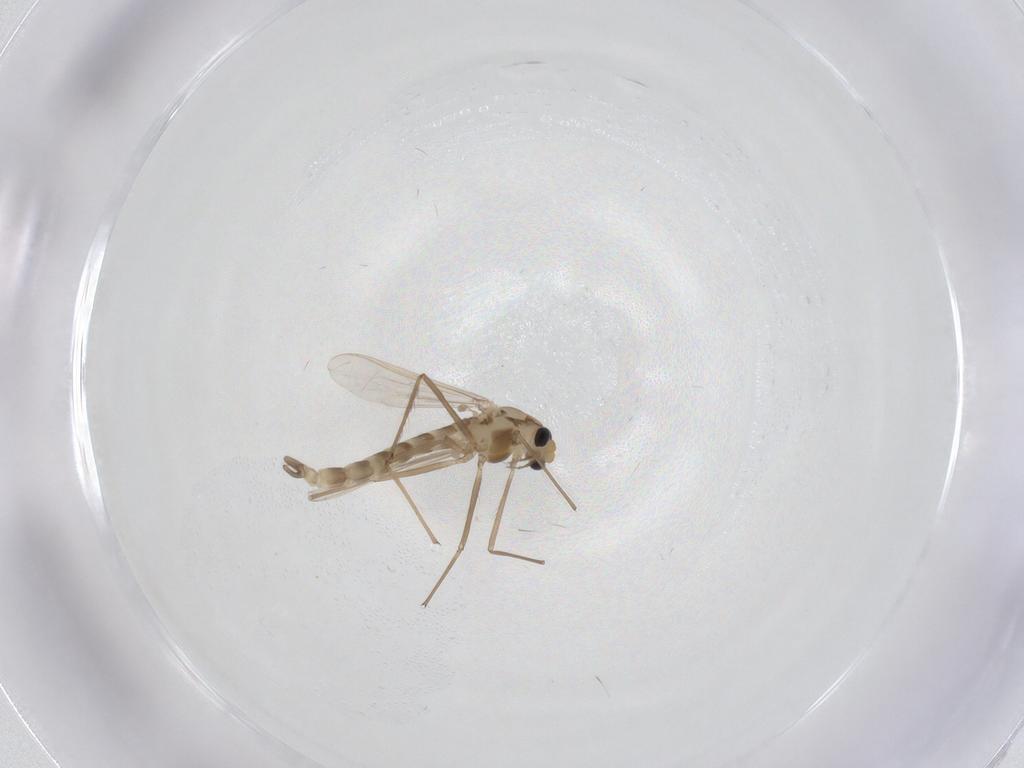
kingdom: Animalia
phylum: Arthropoda
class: Insecta
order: Diptera
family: Chironomidae
